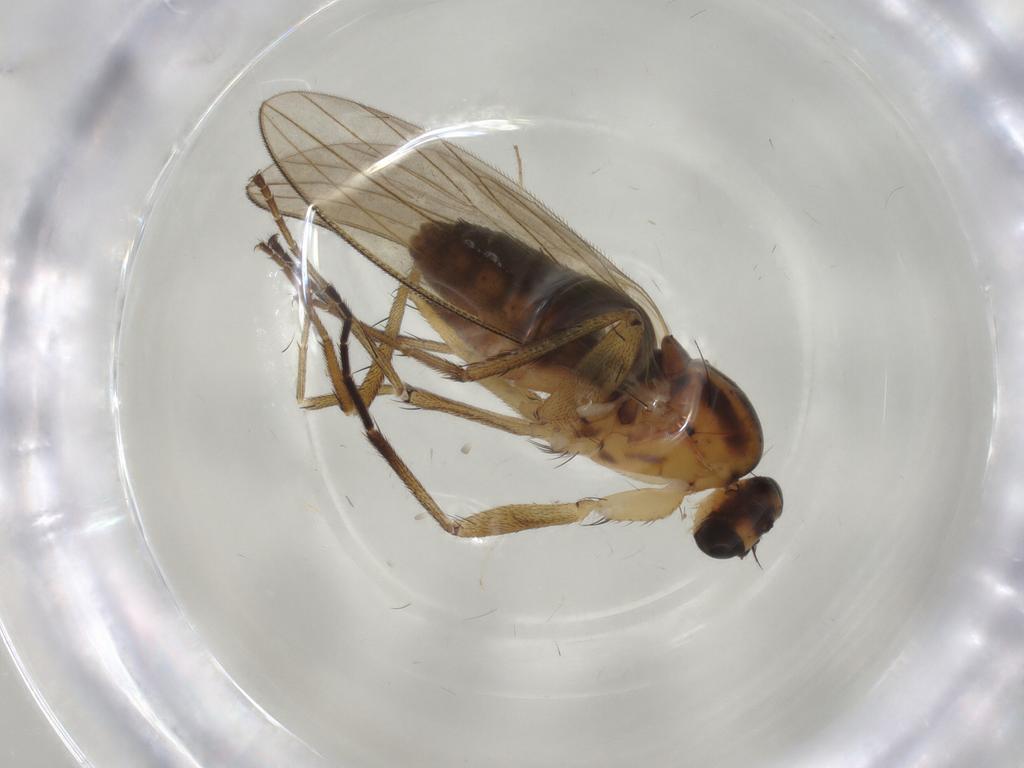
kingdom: Animalia
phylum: Arthropoda
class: Insecta
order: Diptera
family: Lonchopteridae
